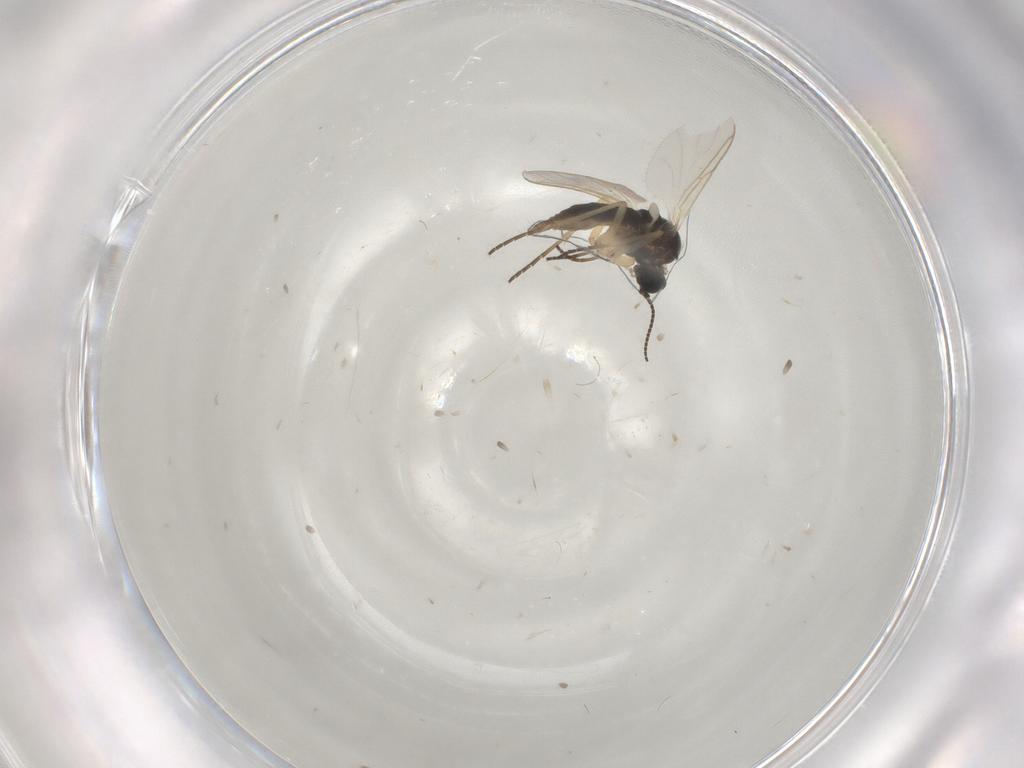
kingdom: Animalia
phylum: Arthropoda
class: Insecta
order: Diptera
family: Sciaridae
